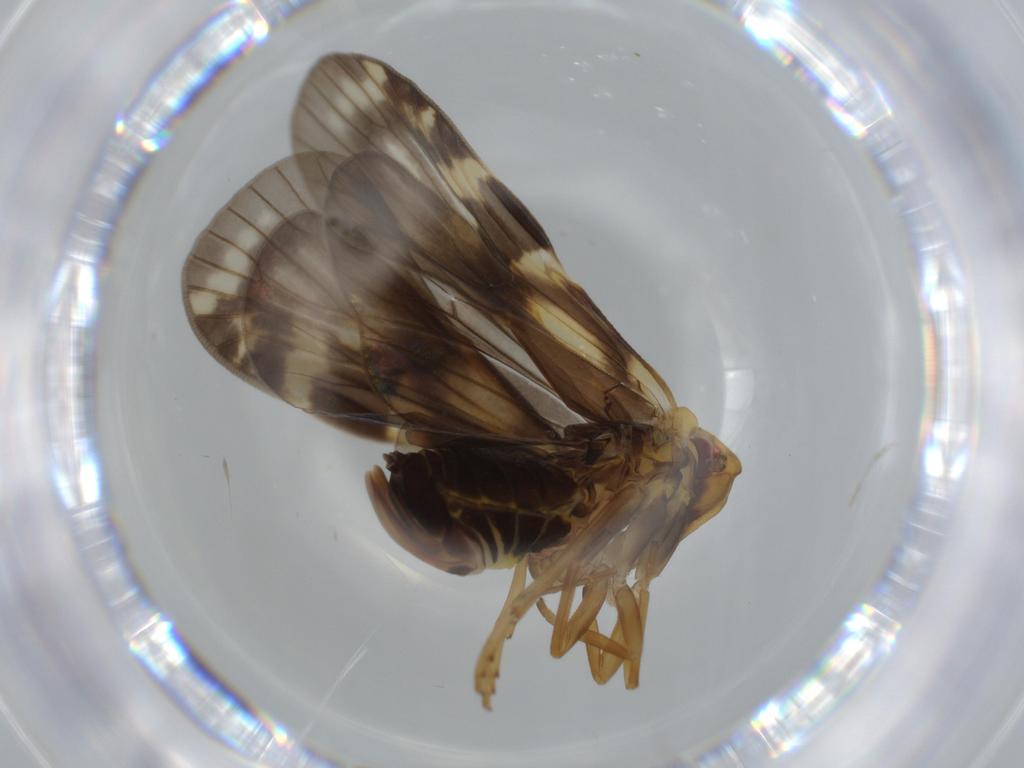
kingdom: Animalia
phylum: Arthropoda
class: Insecta
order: Hemiptera
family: Cixiidae
